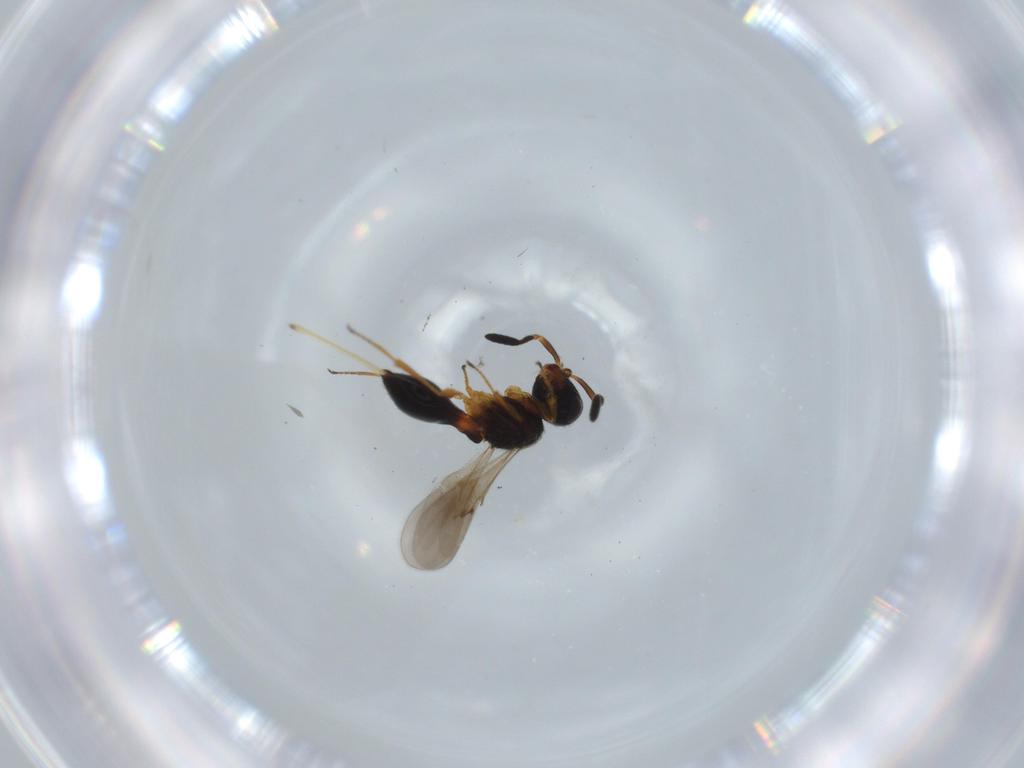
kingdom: Animalia
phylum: Arthropoda
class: Insecta
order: Hymenoptera
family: Scelionidae
